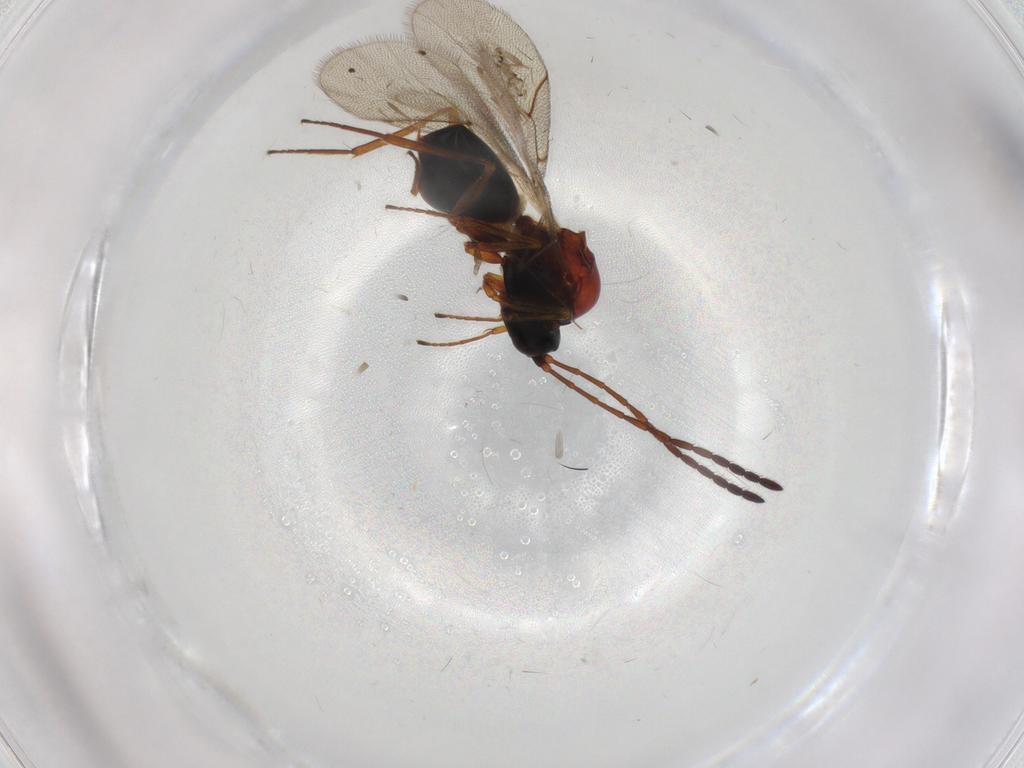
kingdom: Animalia
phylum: Arthropoda
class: Insecta
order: Hymenoptera
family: Figitidae
